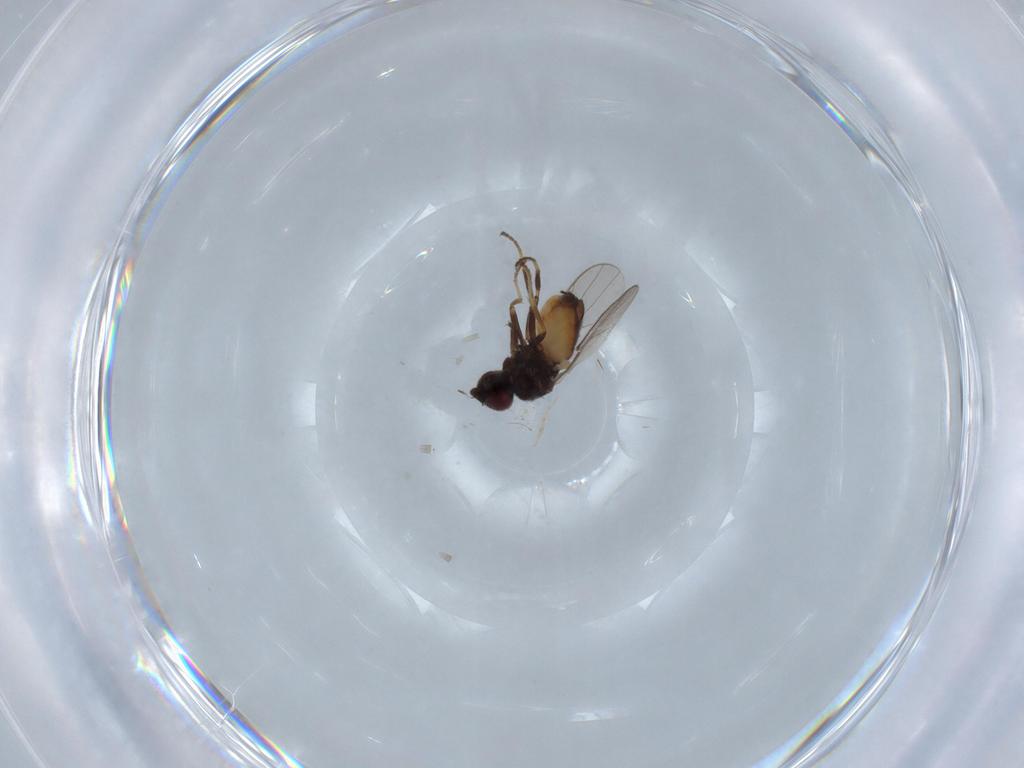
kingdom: Animalia
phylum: Arthropoda
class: Insecta
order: Diptera
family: Chloropidae
